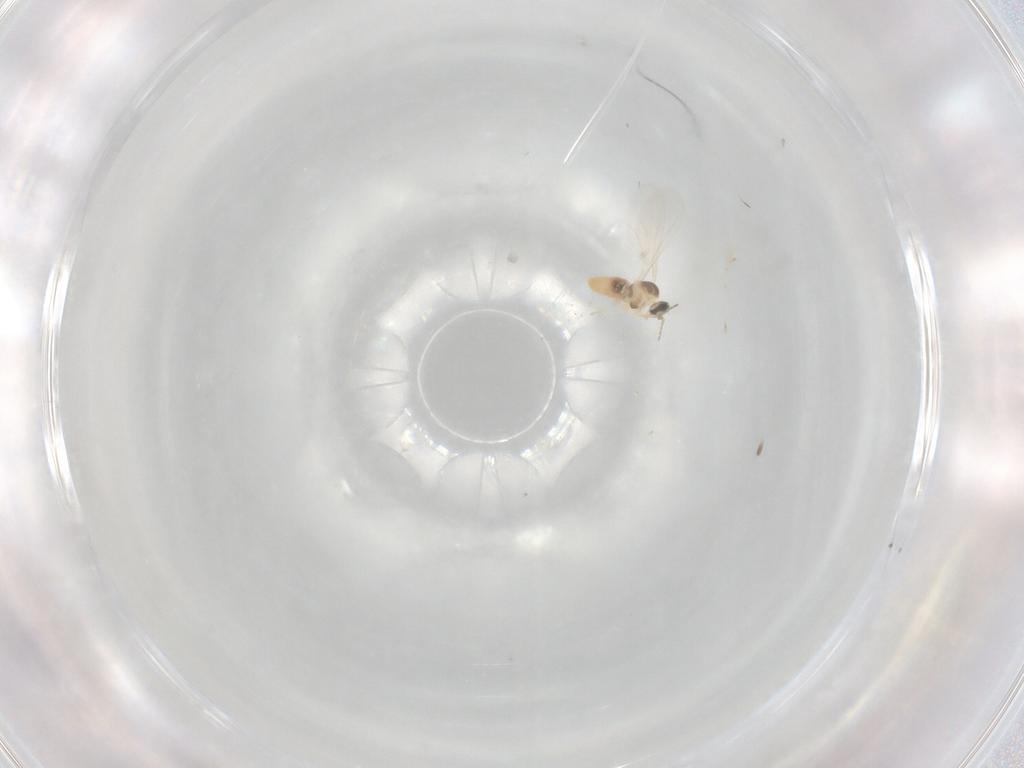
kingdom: Animalia
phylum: Arthropoda
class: Insecta
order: Diptera
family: Cecidomyiidae
